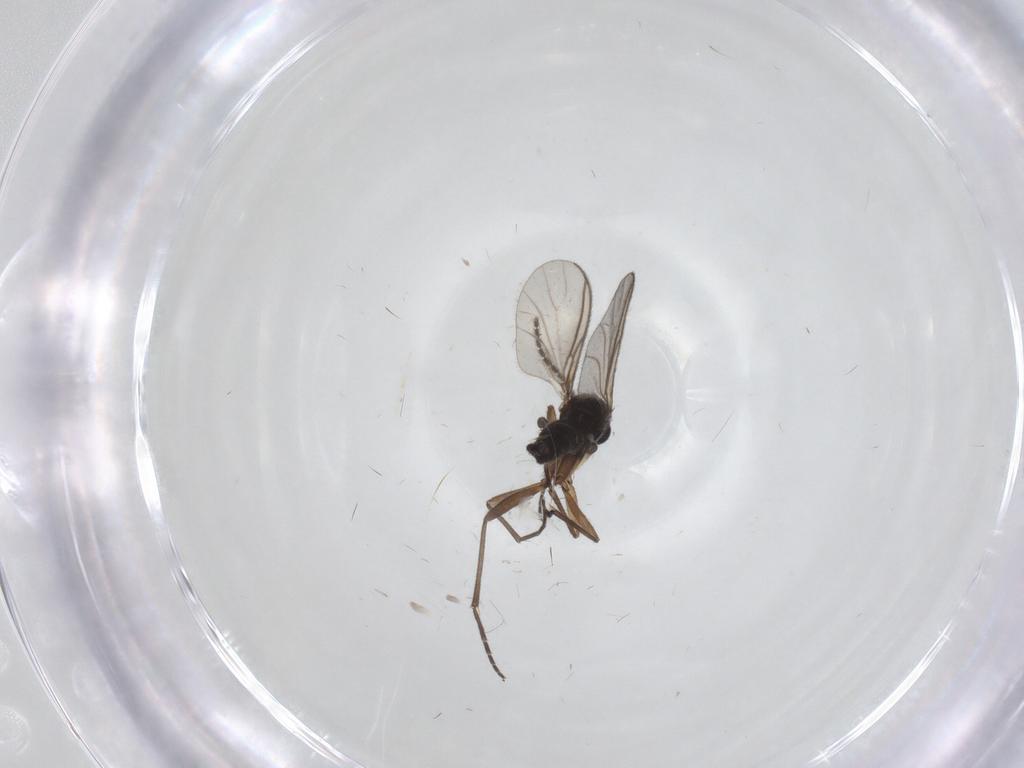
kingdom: Animalia
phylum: Arthropoda
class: Insecta
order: Diptera
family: Sciaridae
